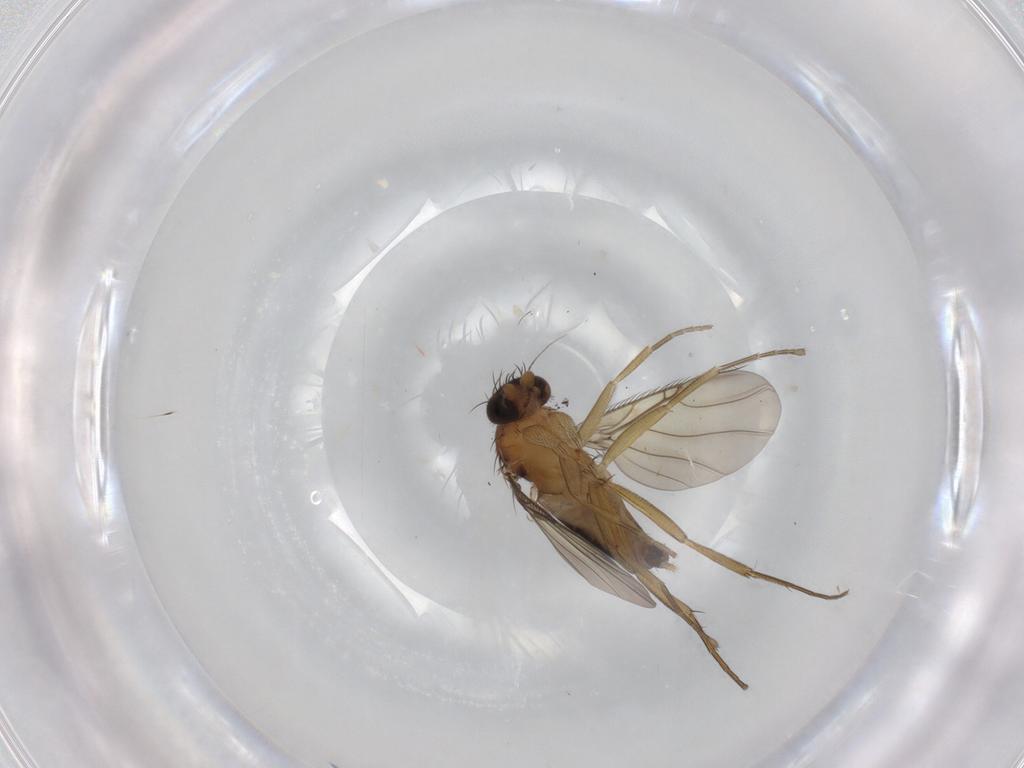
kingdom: Animalia
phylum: Arthropoda
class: Insecta
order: Diptera
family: Phoridae
